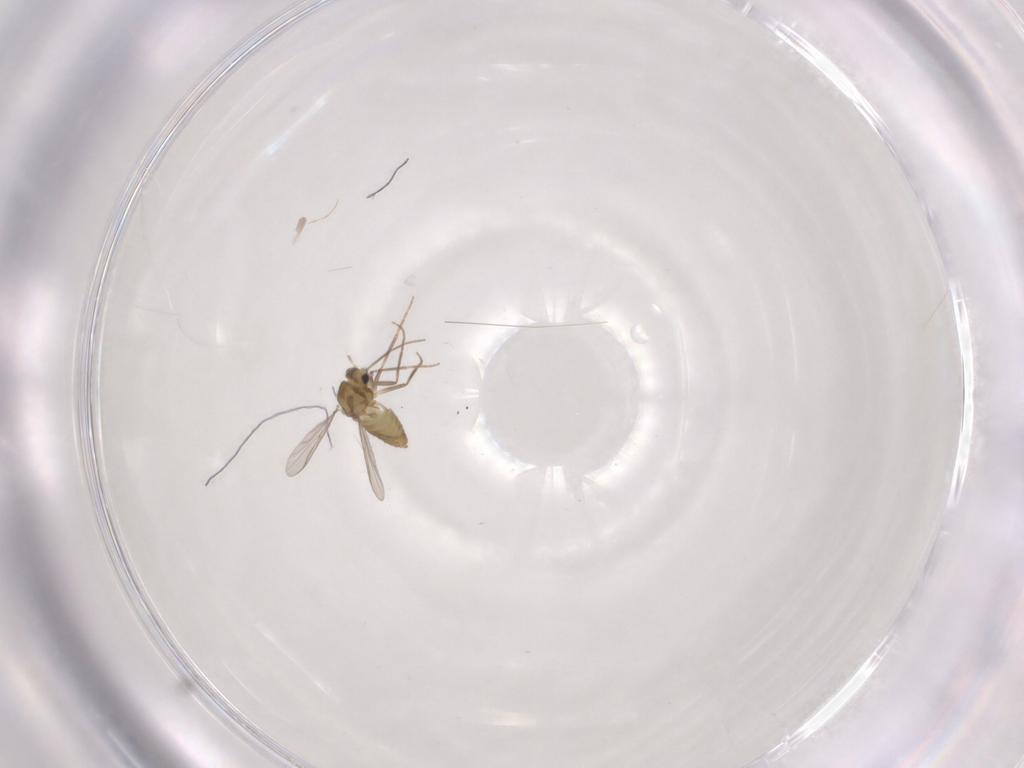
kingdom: Animalia
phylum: Arthropoda
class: Insecta
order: Diptera
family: Chironomidae
